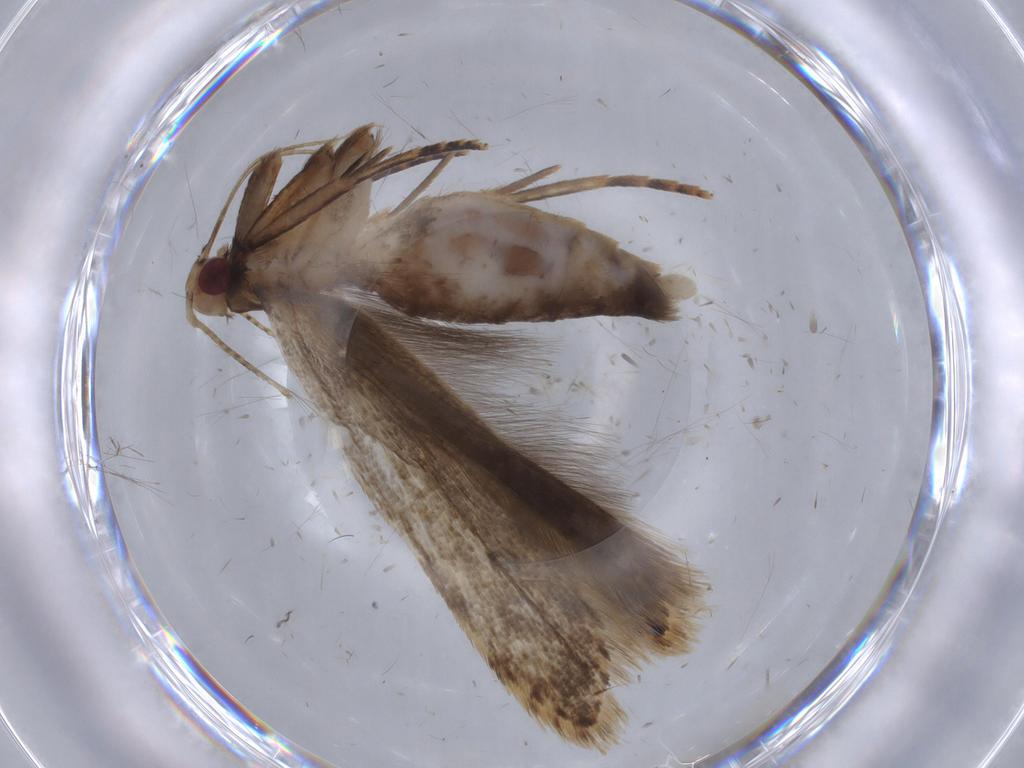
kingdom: Animalia
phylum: Arthropoda
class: Insecta
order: Lepidoptera
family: Gelechiidae
